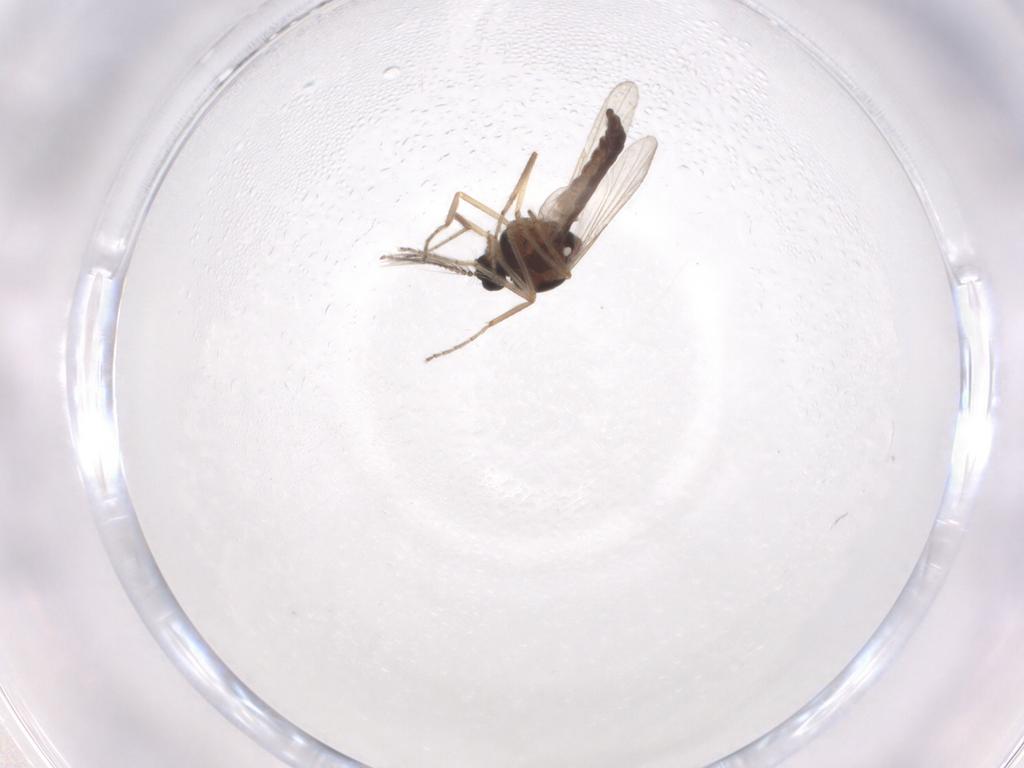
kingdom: Animalia
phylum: Arthropoda
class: Insecta
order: Diptera
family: Ceratopogonidae
